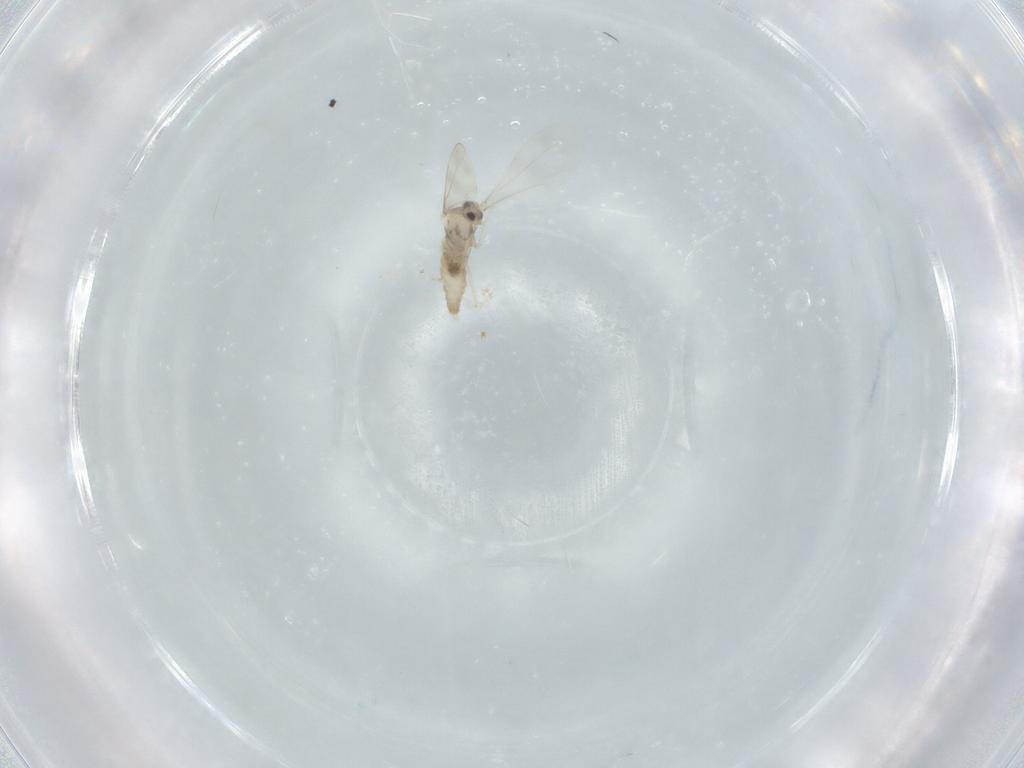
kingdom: Animalia
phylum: Arthropoda
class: Insecta
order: Diptera
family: Cecidomyiidae
